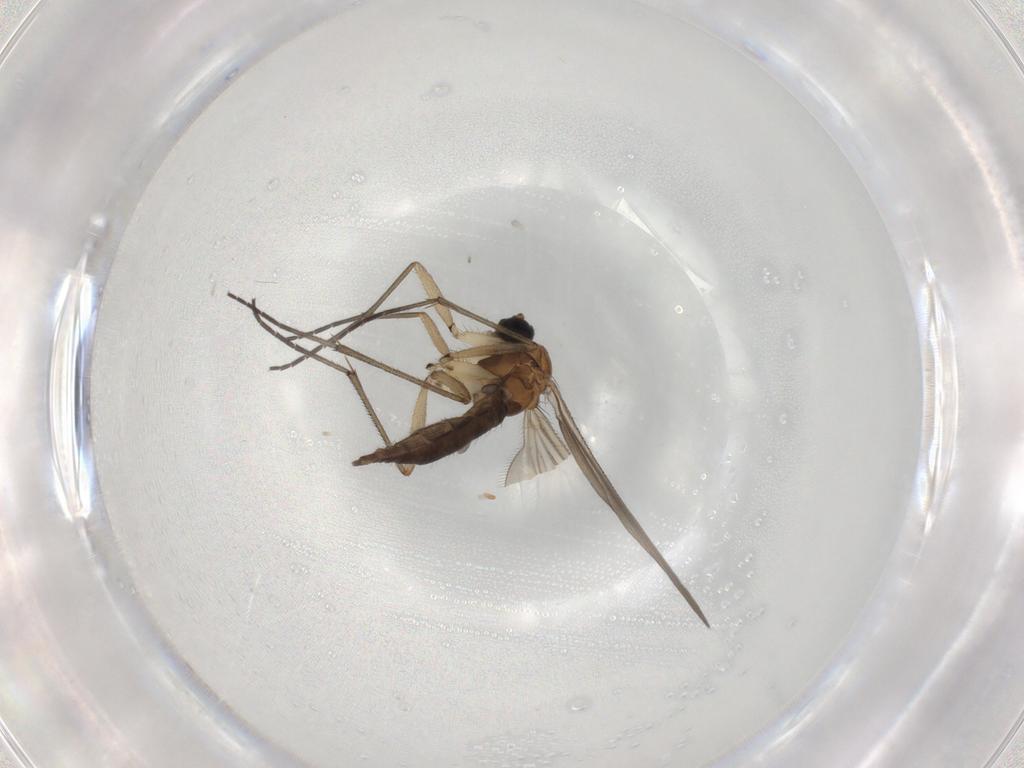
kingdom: Animalia
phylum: Arthropoda
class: Insecta
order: Diptera
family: Sciaridae
